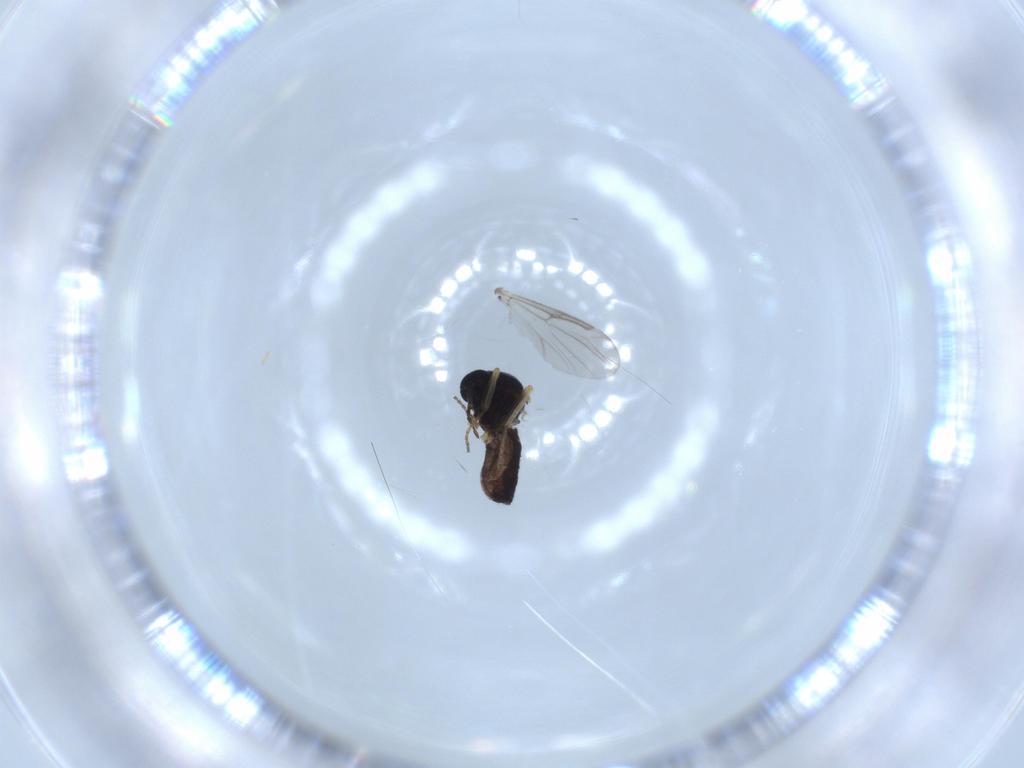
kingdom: Animalia
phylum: Arthropoda
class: Insecta
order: Diptera
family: Ceratopogonidae
